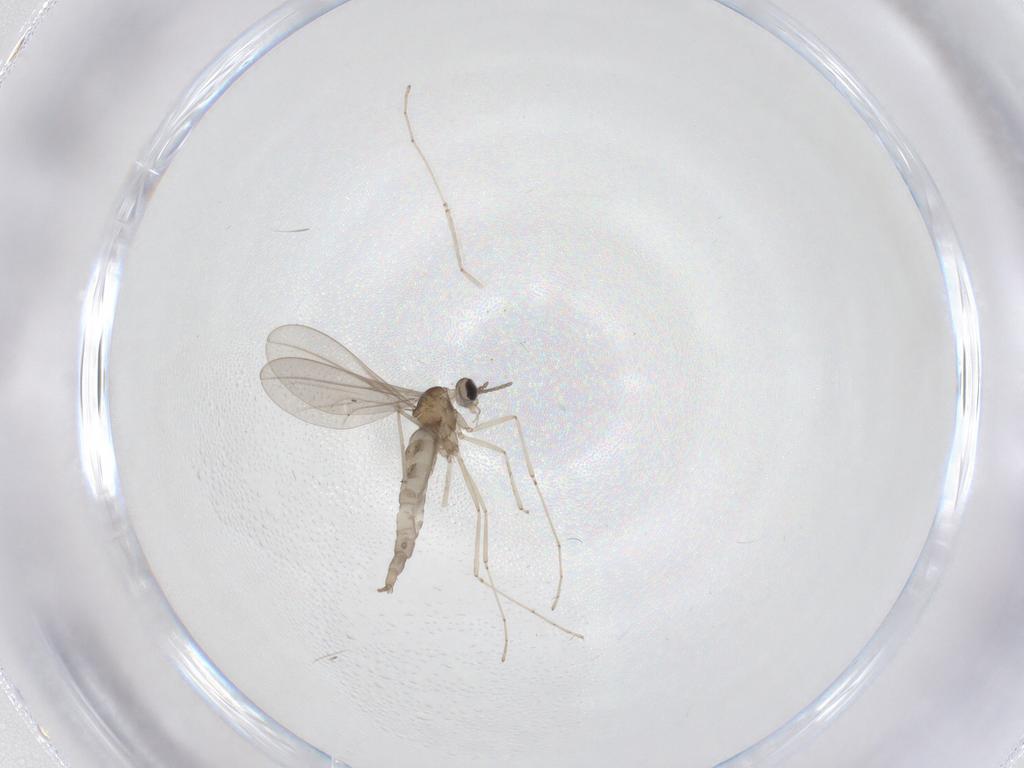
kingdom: Animalia
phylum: Arthropoda
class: Insecta
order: Diptera
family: Cecidomyiidae
